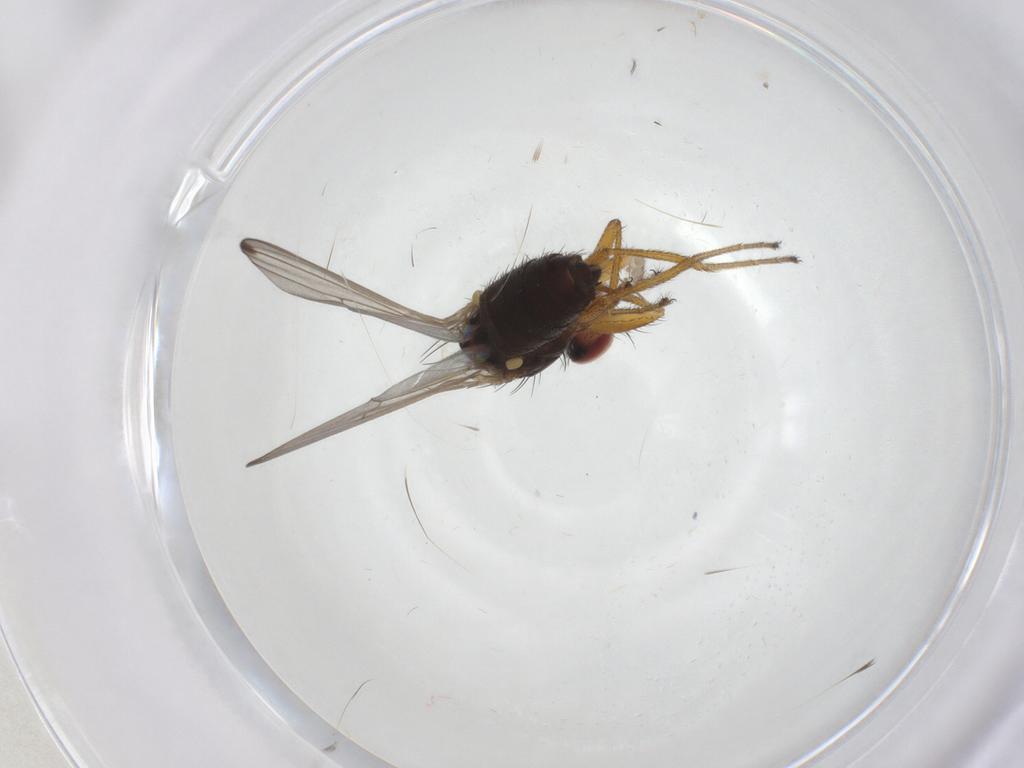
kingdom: Animalia
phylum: Arthropoda
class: Insecta
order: Diptera
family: Drosophilidae
